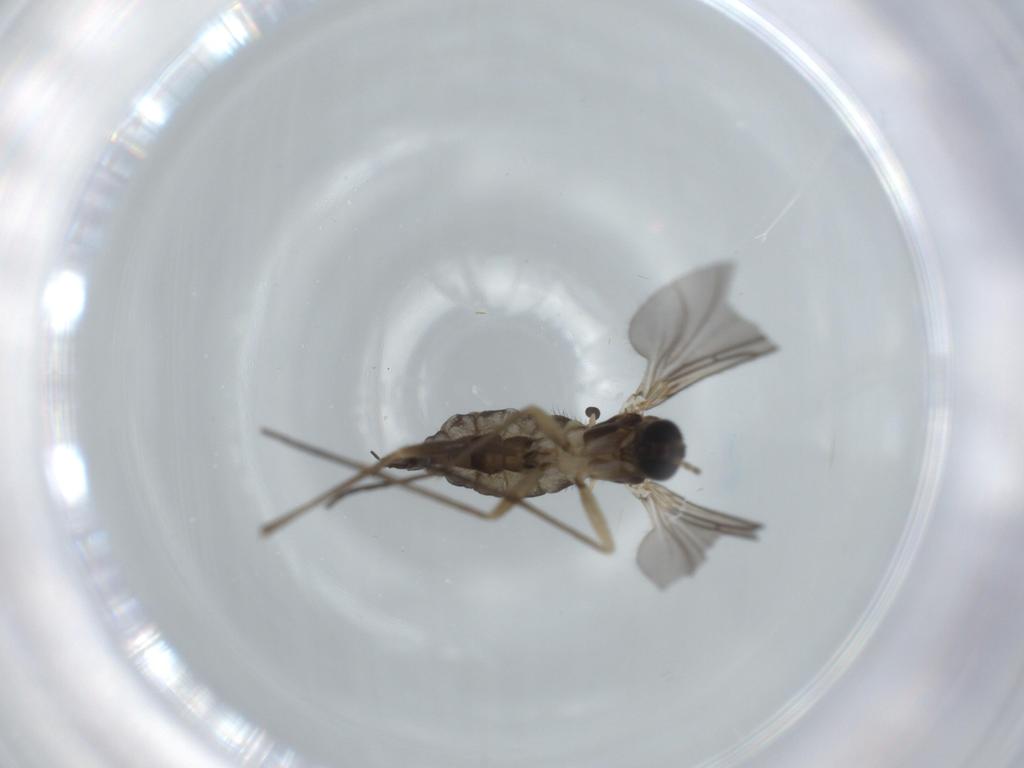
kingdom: Animalia
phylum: Arthropoda
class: Insecta
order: Diptera
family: Sciaridae
